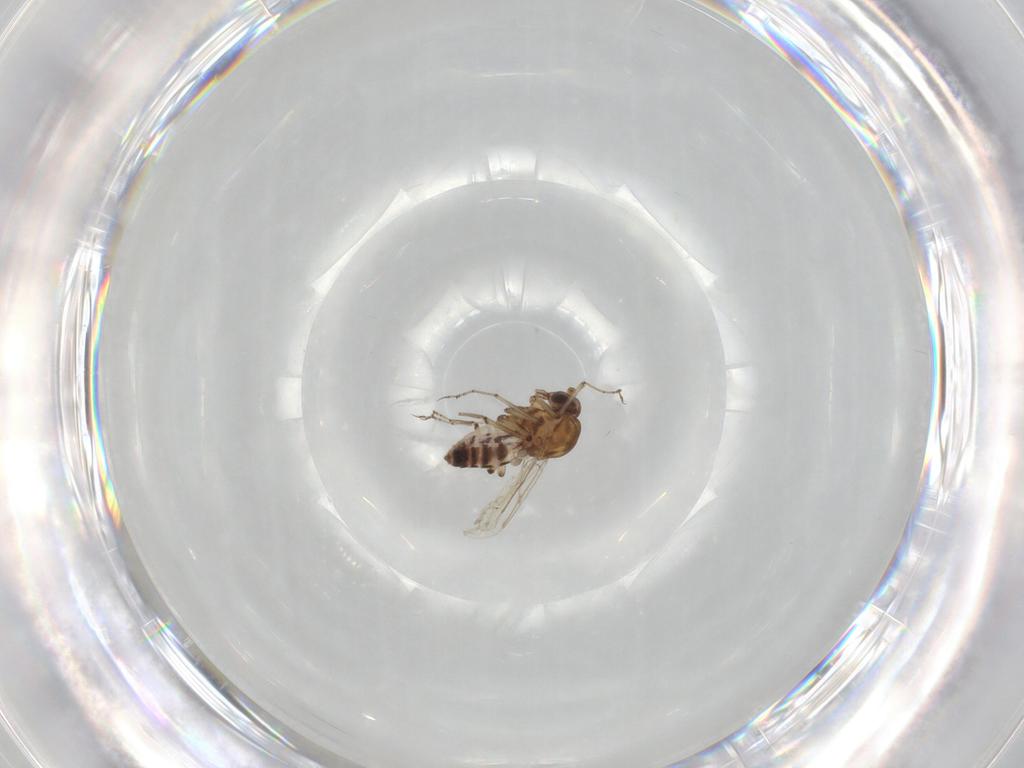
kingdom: Animalia
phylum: Arthropoda
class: Insecta
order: Diptera
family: Ceratopogonidae
